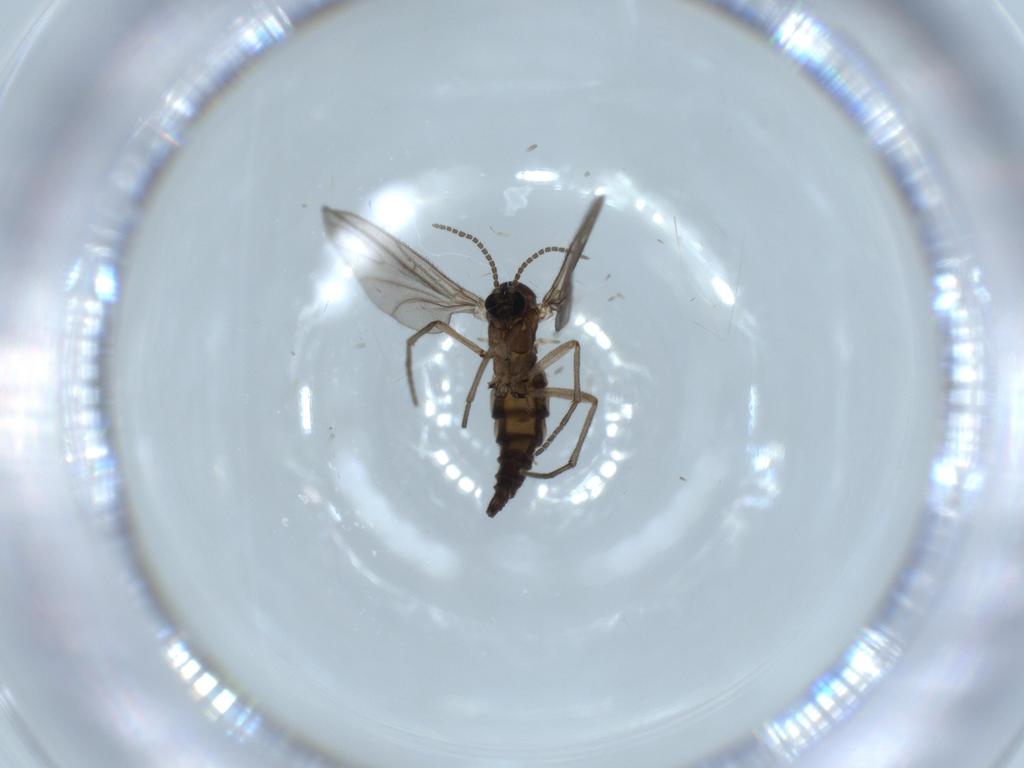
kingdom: Animalia
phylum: Arthropoda
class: Insecta
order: Diptera
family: Sciaridae
